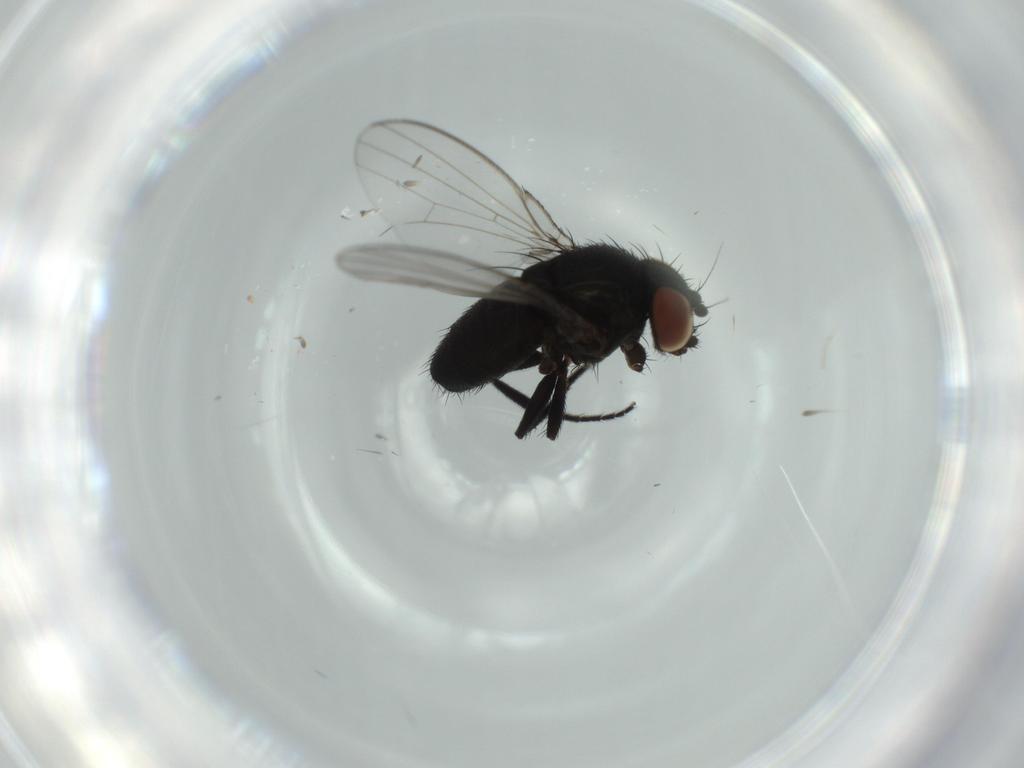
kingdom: Animalia
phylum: Arthropoda
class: Insecta
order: Diptera
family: Milichiidae
